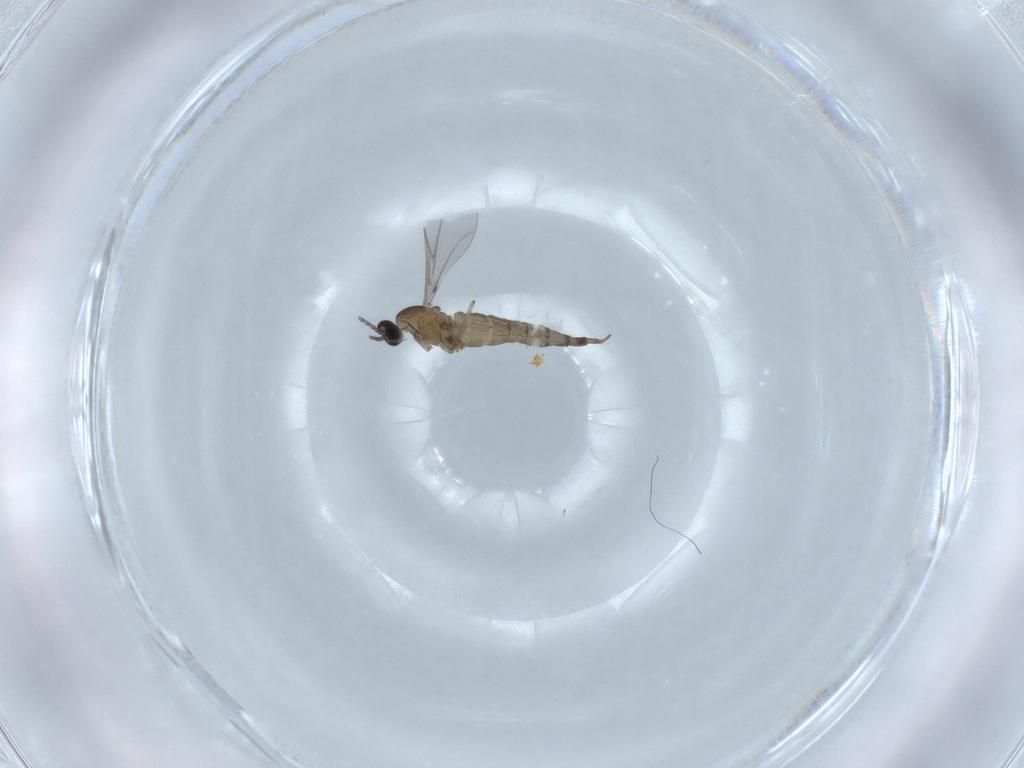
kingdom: Animalia
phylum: Arthropoda
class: Insecta
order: Diptera
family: Cecidomyiidae
